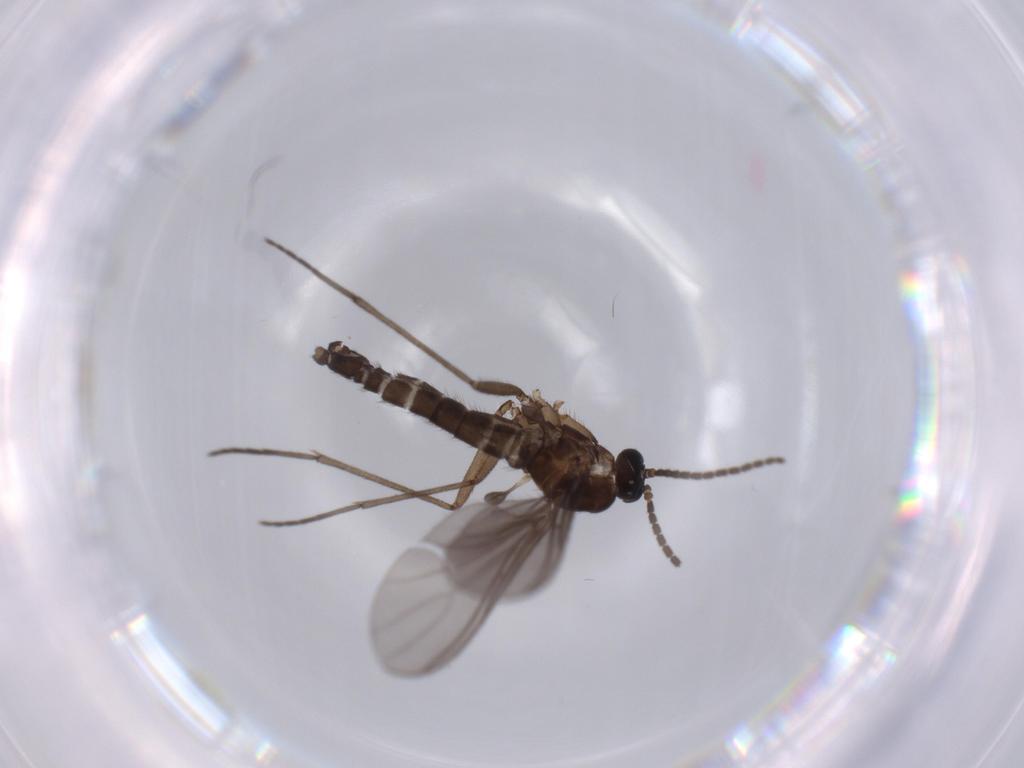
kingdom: Animalia
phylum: Arthropoda
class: Insecta
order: Diptera
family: Sciaridae
